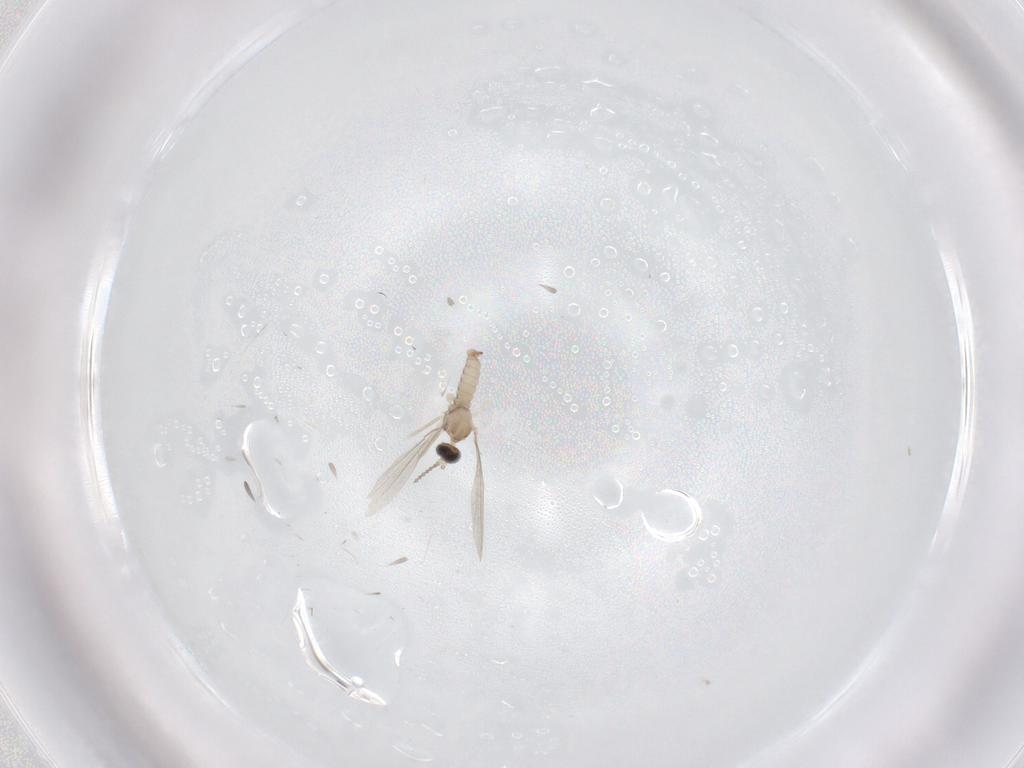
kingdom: Animalia
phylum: Arthropoda
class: Insecta
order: Diptera
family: Cecidomyiidae
